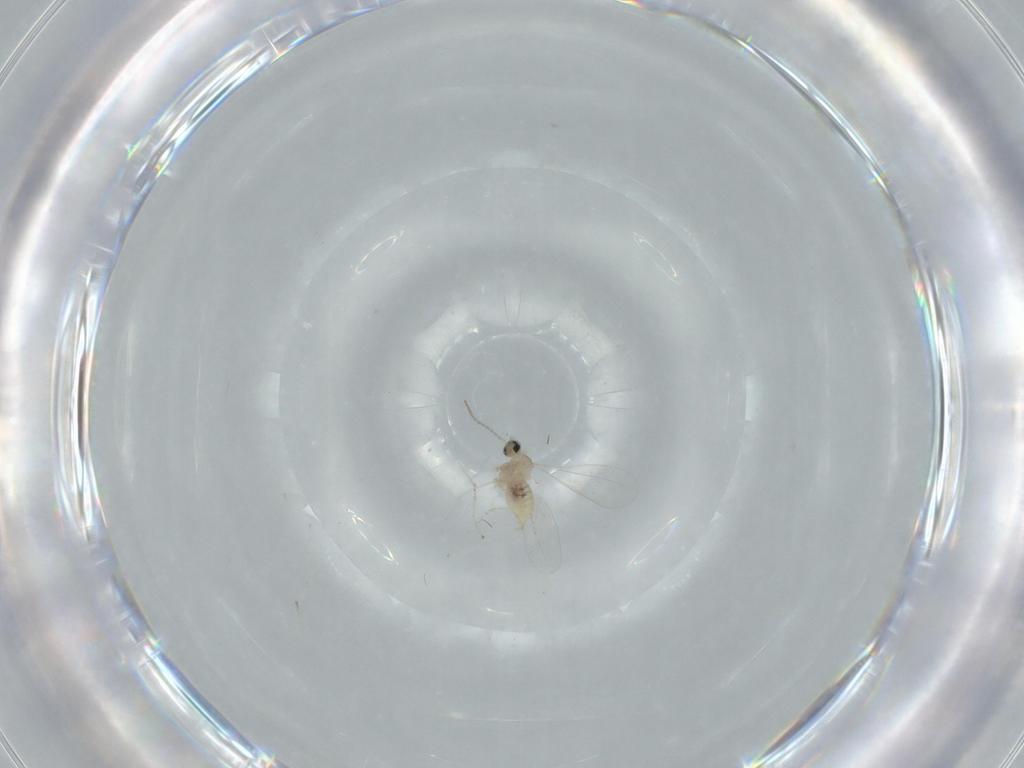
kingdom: Animalia
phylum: Arthropoda
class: Insecta
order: Diptera
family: Cecidomyiidae
